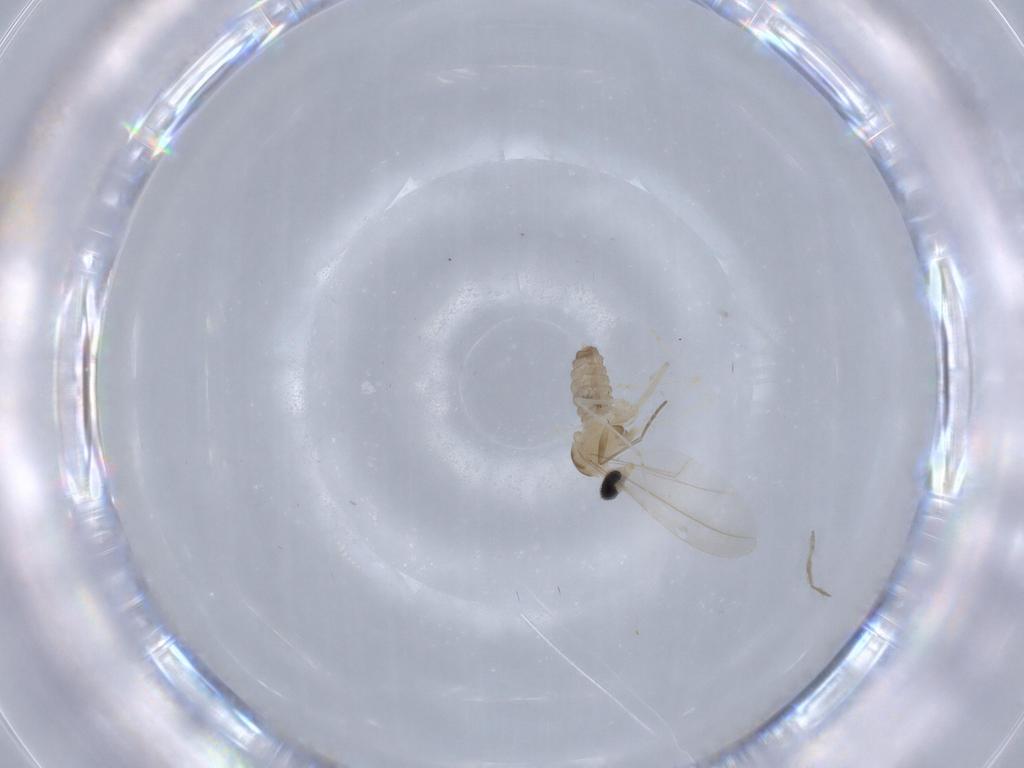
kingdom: Animalia
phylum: Arthropoda
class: Insecta
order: Diptera
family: Cecidomyiidae
